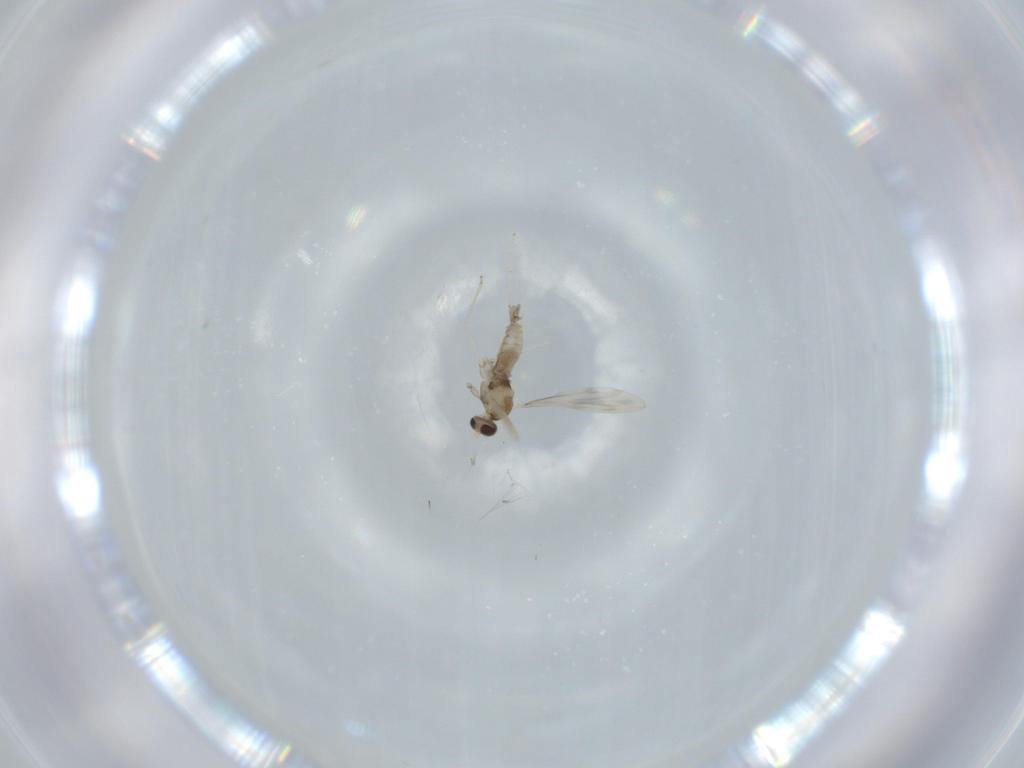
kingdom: Animalia
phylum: Arthropoda
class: Insecta
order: Diptera
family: Cecidomyiidae
